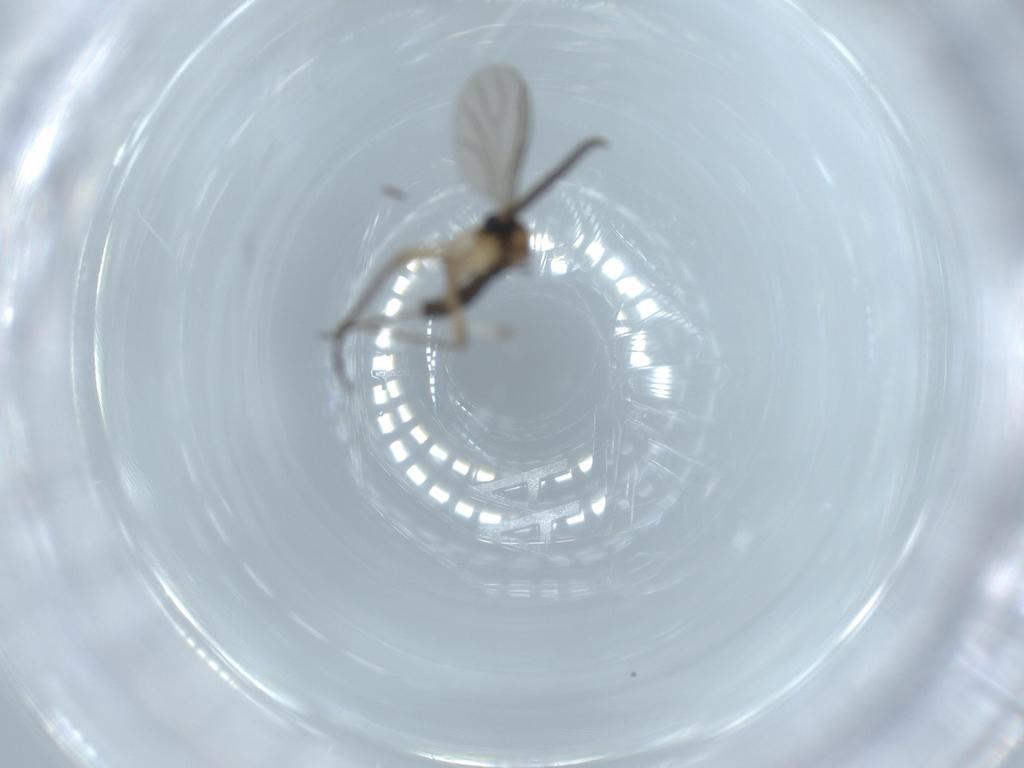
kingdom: Animalia
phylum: Arthropoda
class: Insecta
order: Diptera
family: Sciaridae
